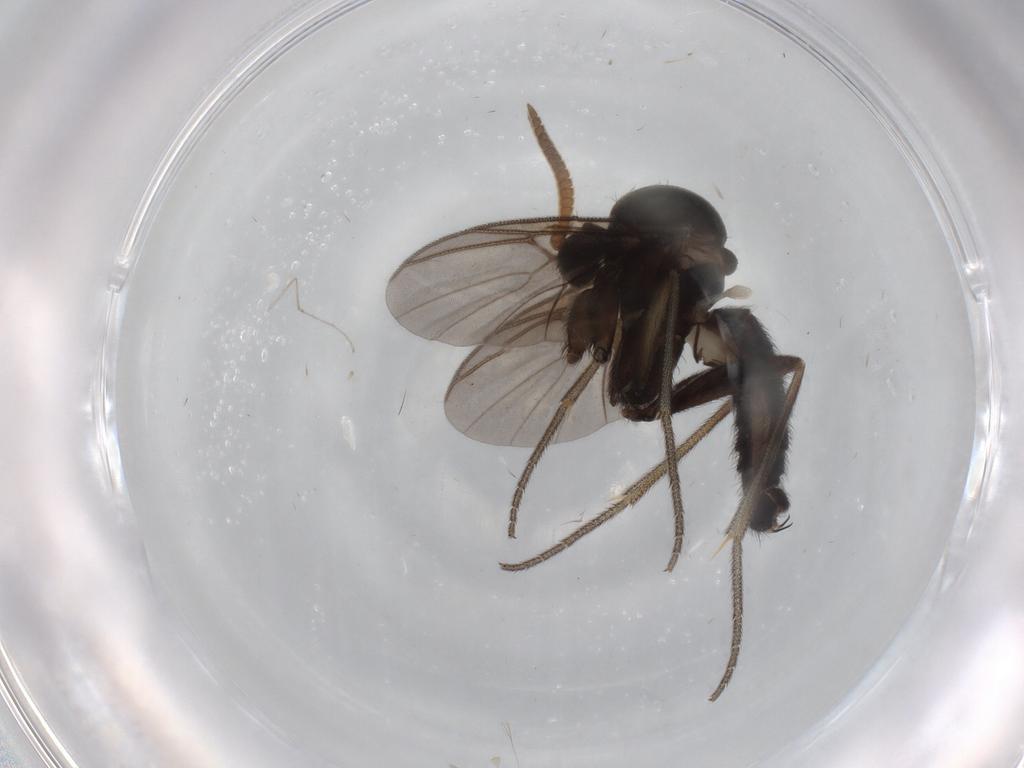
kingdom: Animalia
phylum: Arthropoda
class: Insecta
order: Diptera
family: Mycetophilidae
